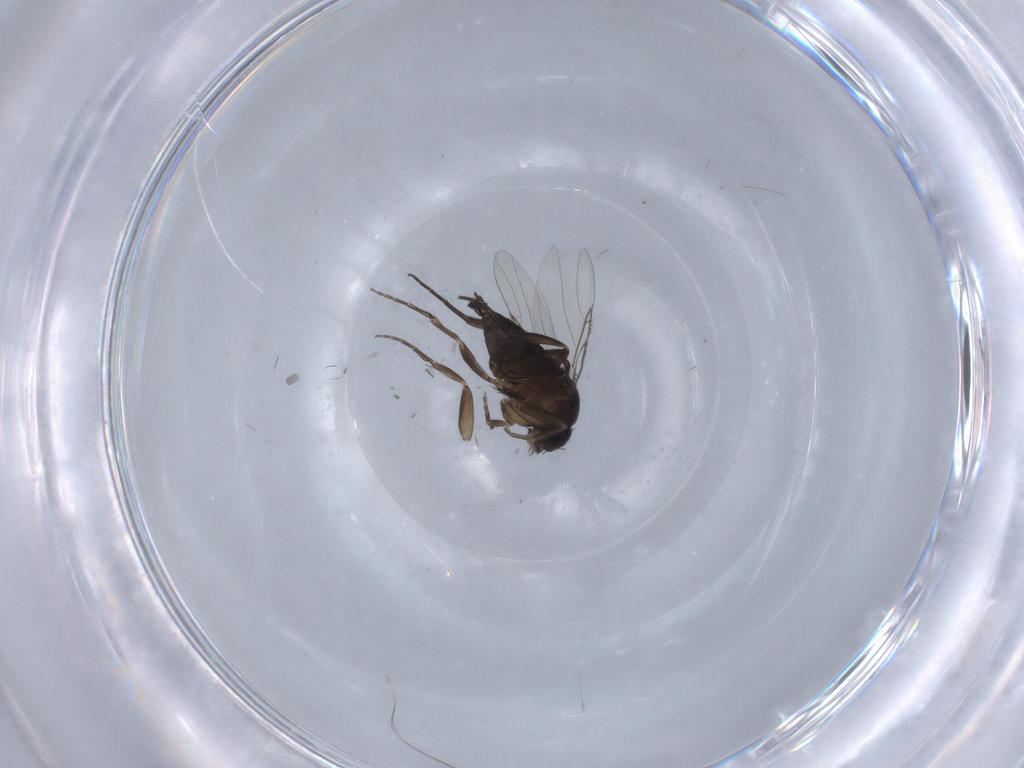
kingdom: Animalia
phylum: Arthropoda
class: Insecta
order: Diptera
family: Phoridae
